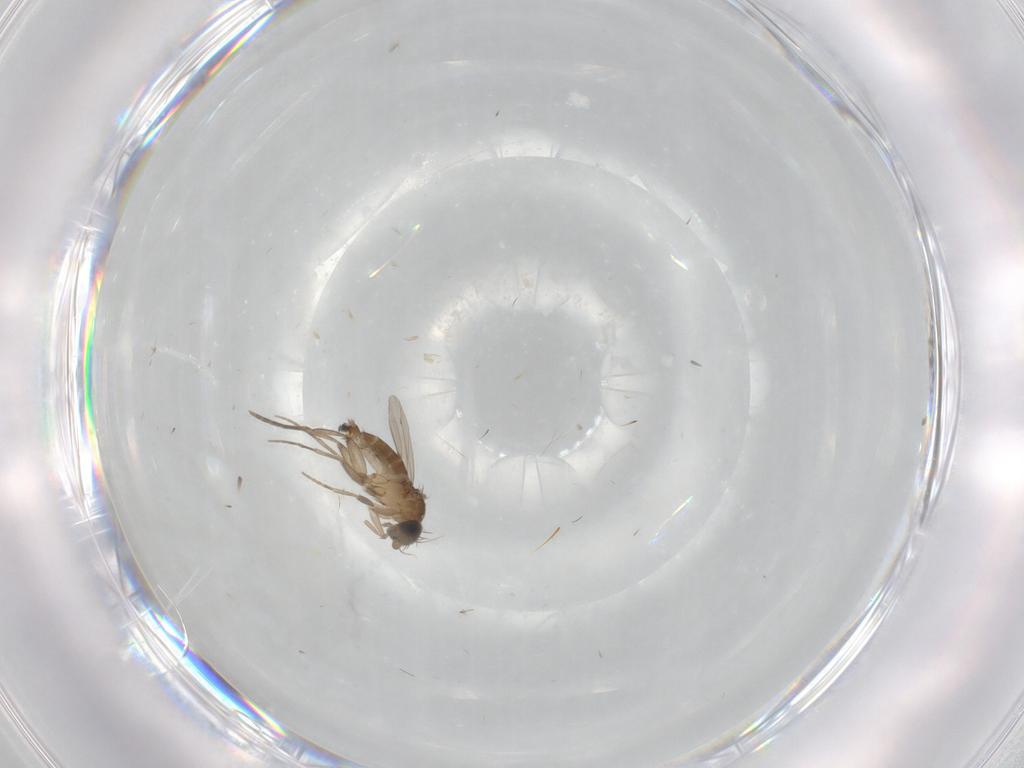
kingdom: Animalia
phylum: Arthropoda
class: Insecta
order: Diptera
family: Phoridae
